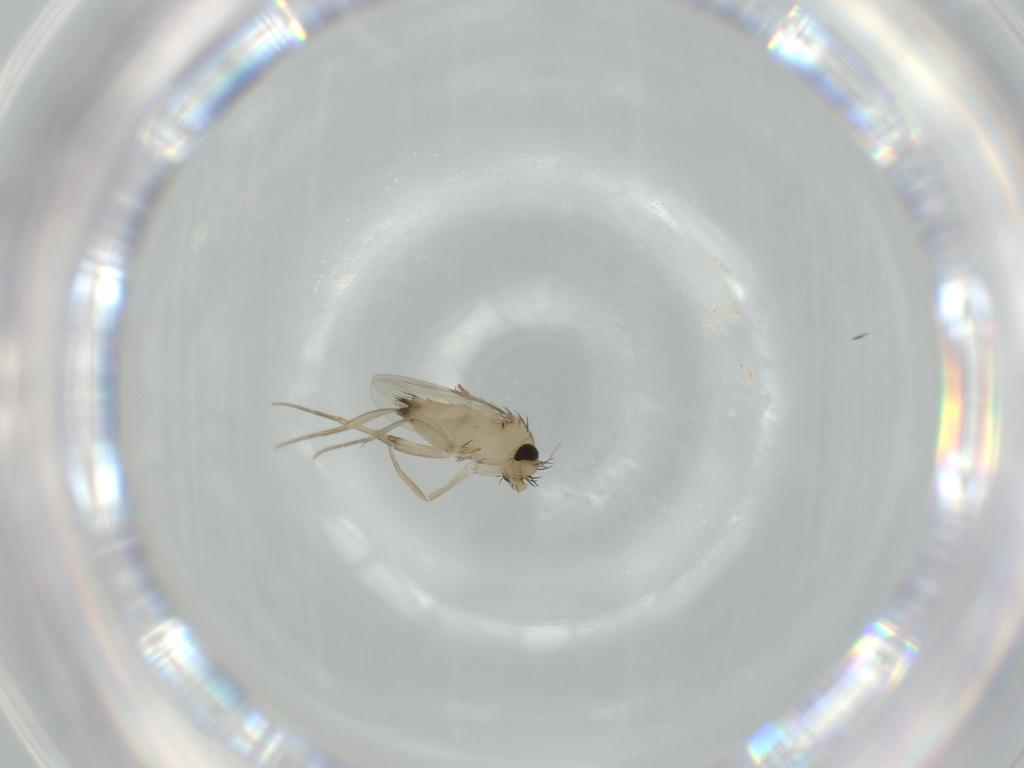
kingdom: Animalia
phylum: Arthropoda
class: Insecta
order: Diptera
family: Phoridae
